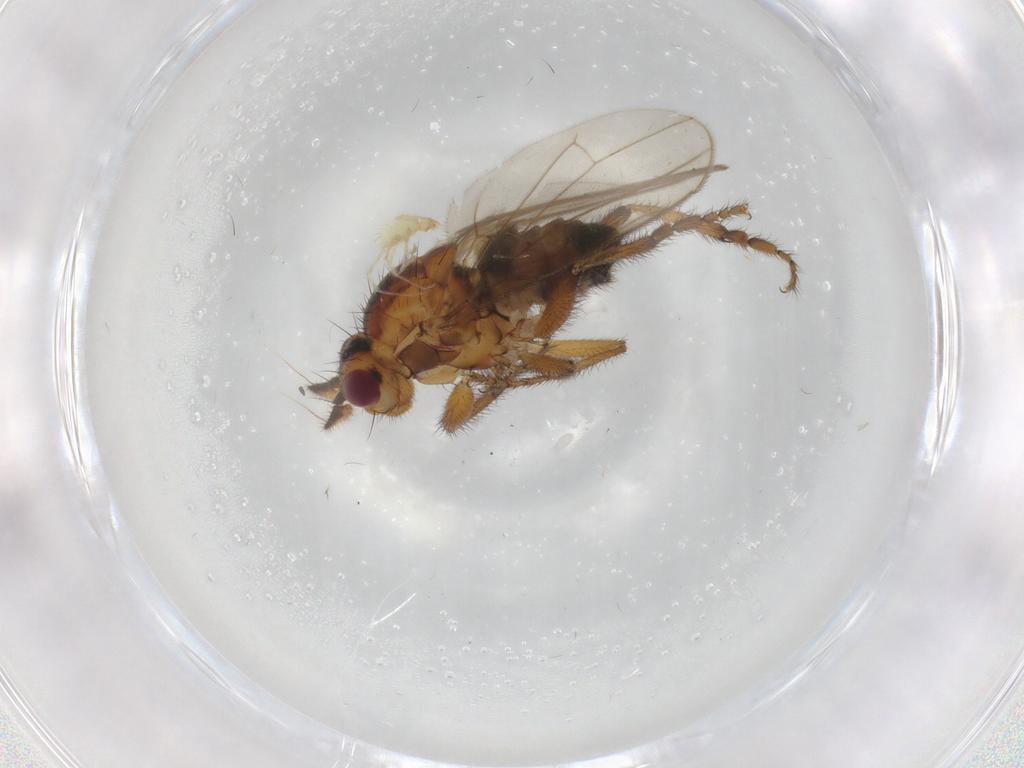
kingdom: Animalia
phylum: Arthropoda
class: Insecta
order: Diptera
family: Sphaeroceridae
